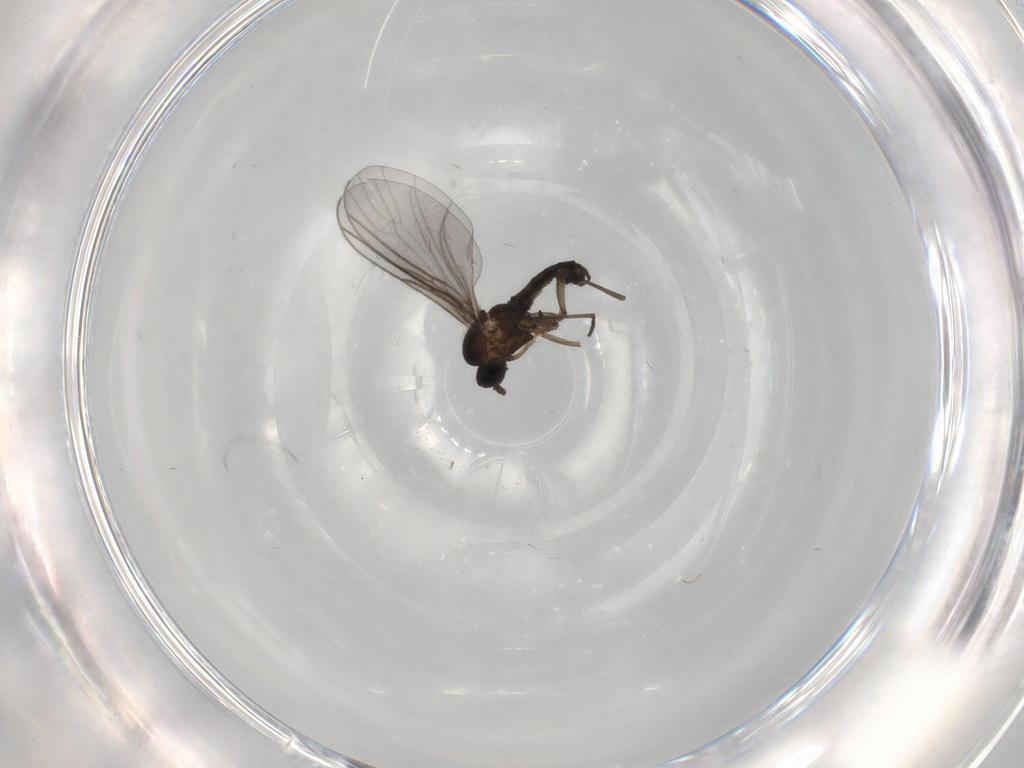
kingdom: Animalia
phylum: Arthropoda
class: Insecta
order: Diptera
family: Sciaridae
